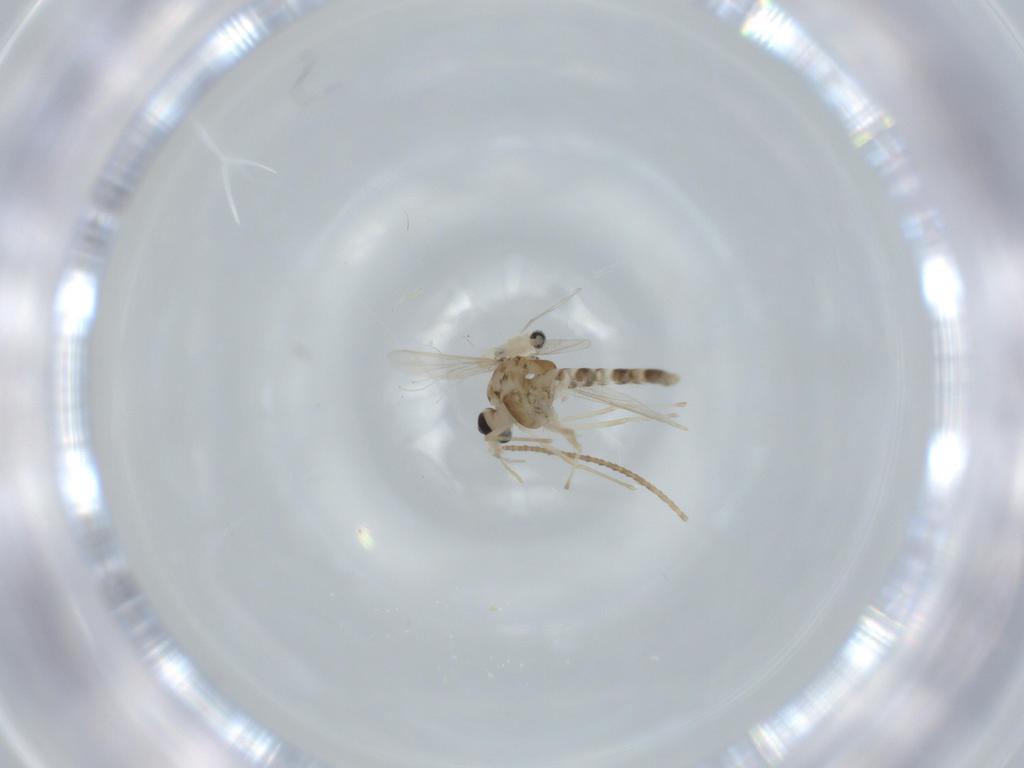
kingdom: Animalia
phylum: Arthropoda
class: Insecta
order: Diptera
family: Chironomidae
